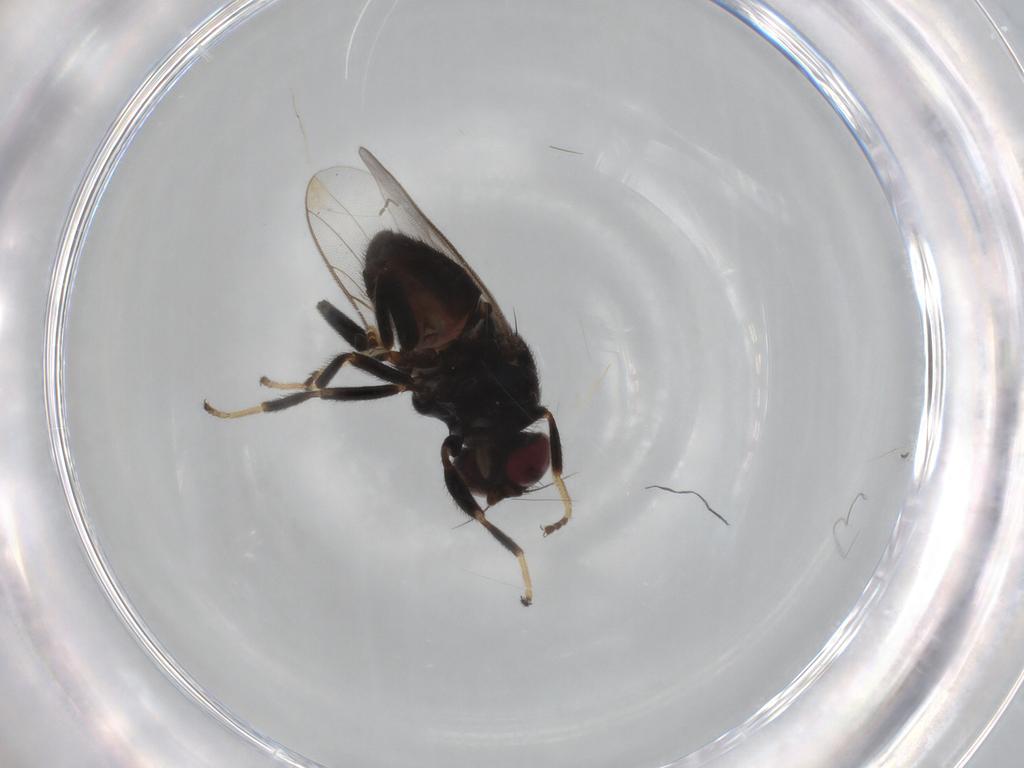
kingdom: Animalia
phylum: Arthropoda
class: Insecta
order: Diptera
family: Chloropidae
